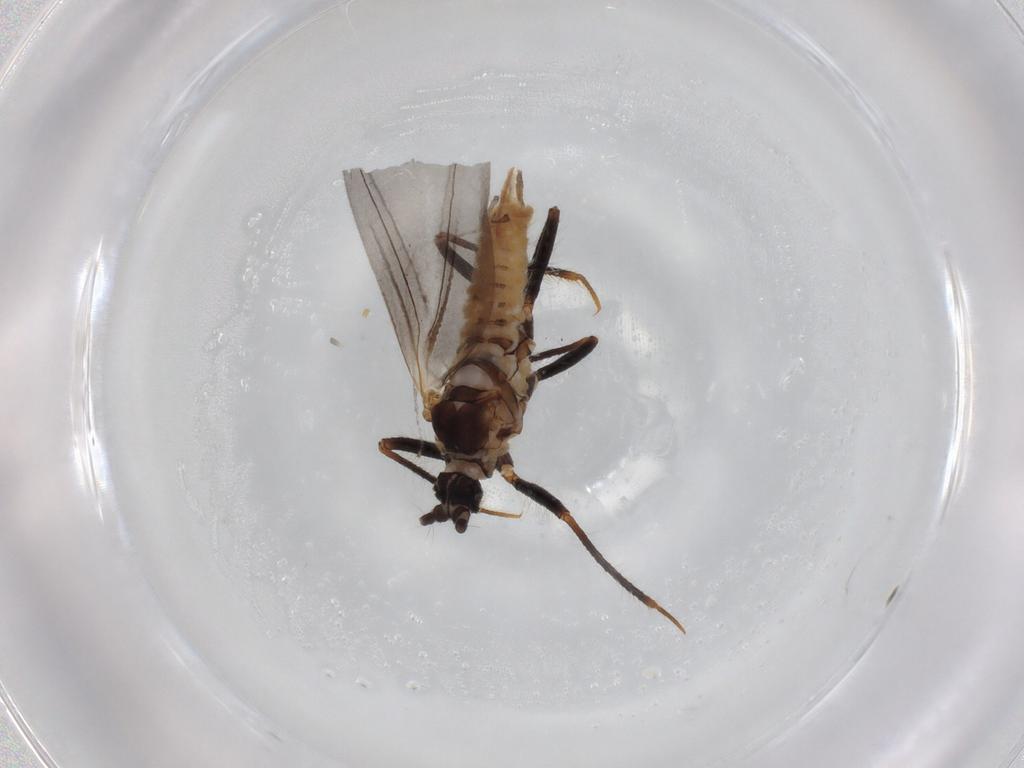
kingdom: Animalia
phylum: Arthropoda
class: Insecta
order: Hemiptera
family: Putoidae
